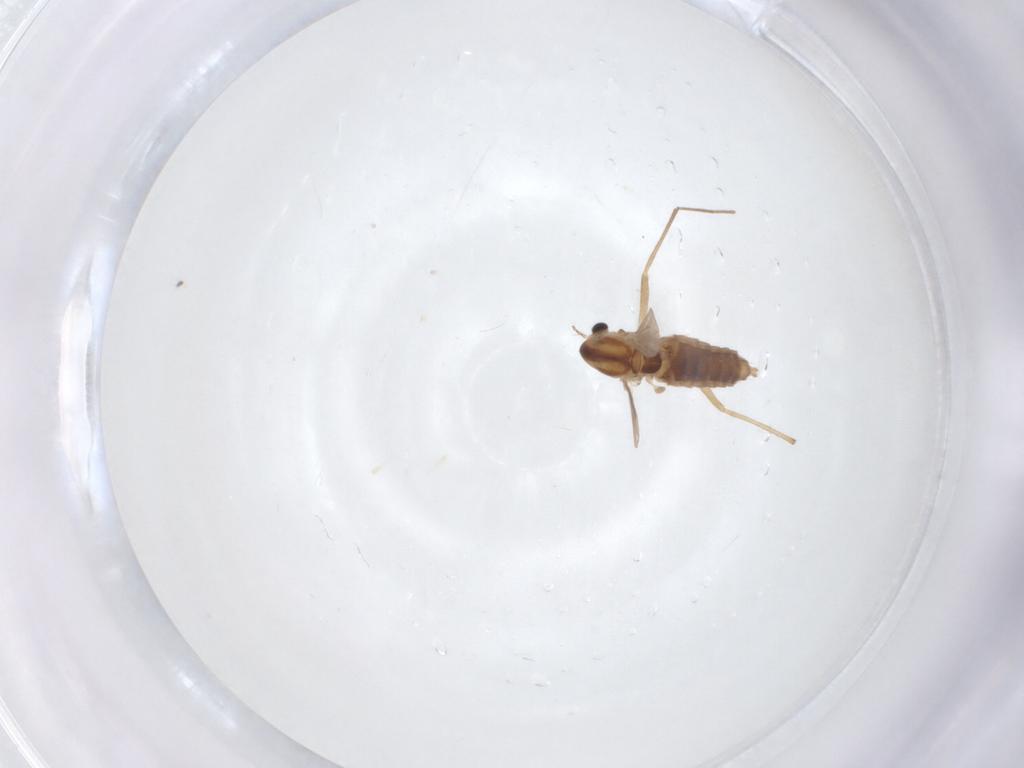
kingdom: Animalia
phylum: Arthropoda
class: Insecta
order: Diptera
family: Chironomidae
